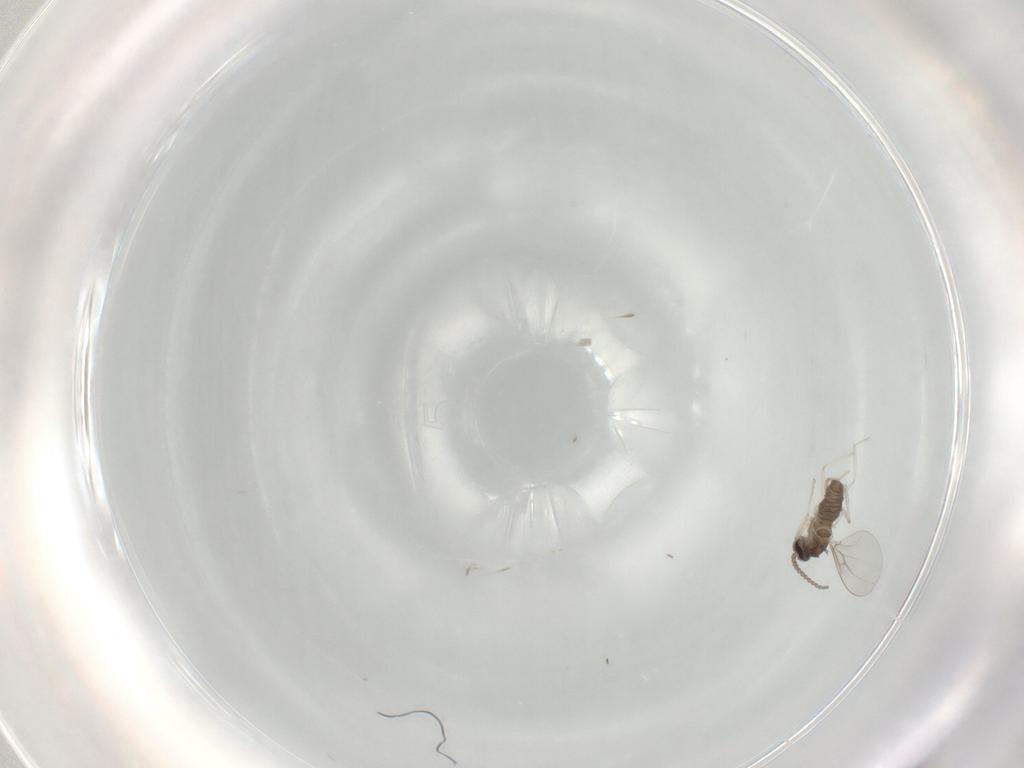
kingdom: Animalia
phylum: Arthropoda
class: Insecta
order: Diptera
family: Cecidomyiidae
